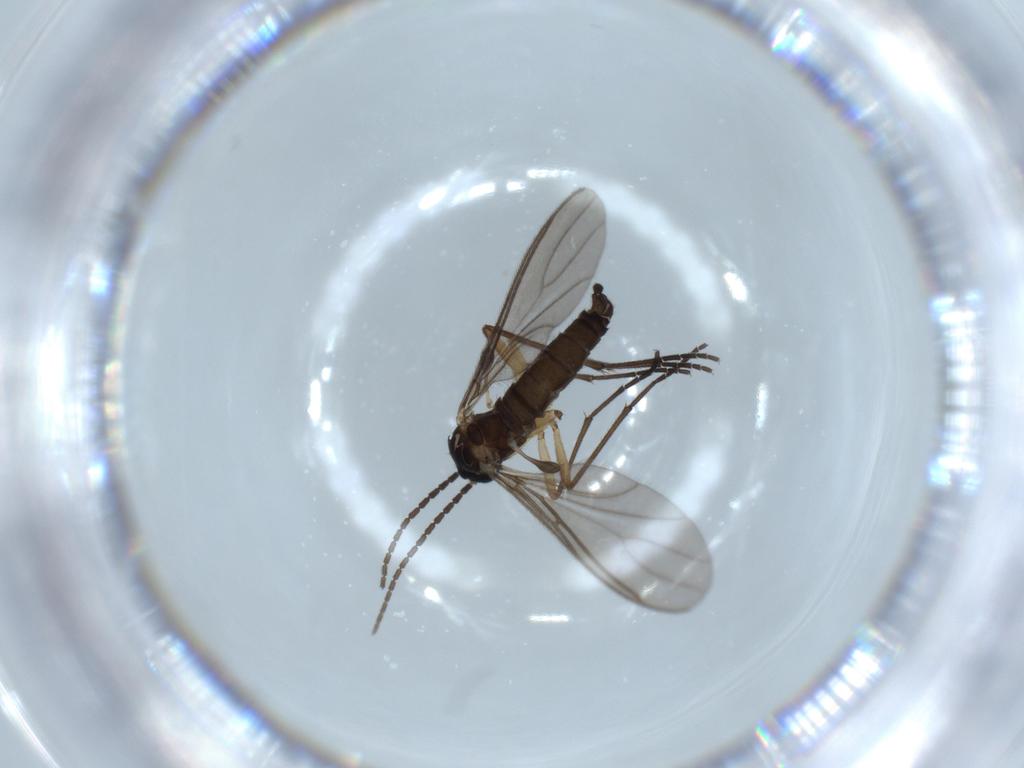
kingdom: Animalia
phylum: Arthropoda
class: Insecta
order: Diptera
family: Sciaridae
